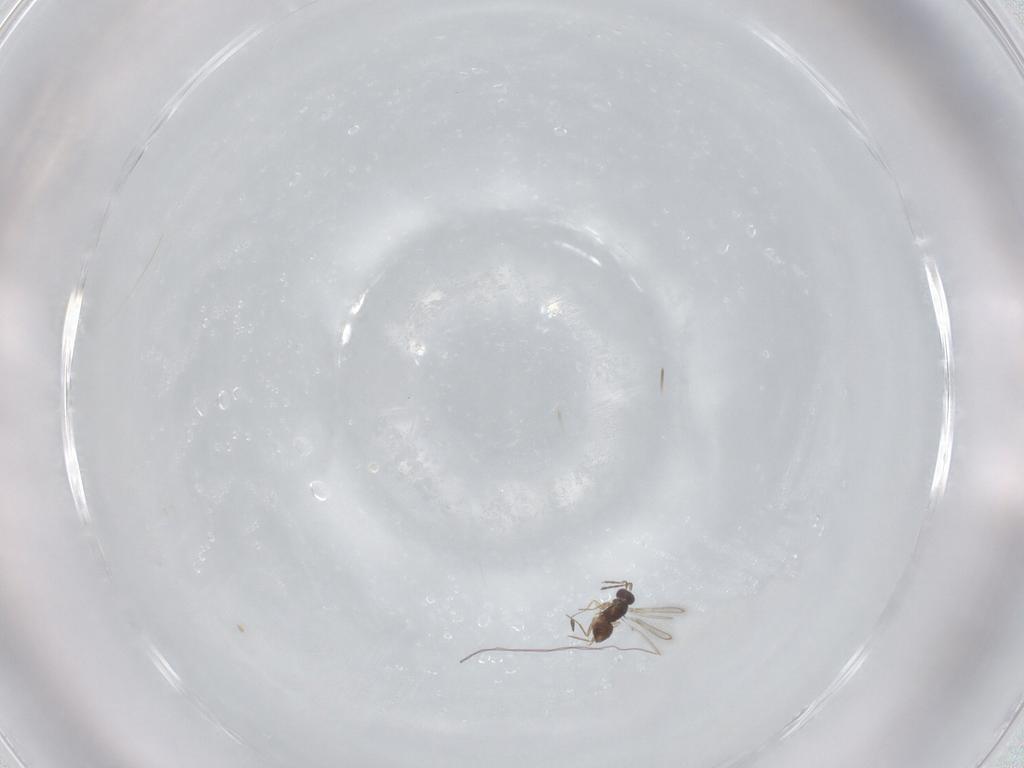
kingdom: Animalia
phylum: Arthropoda
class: Insecta
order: Hymenoptera
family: Mymaridae
